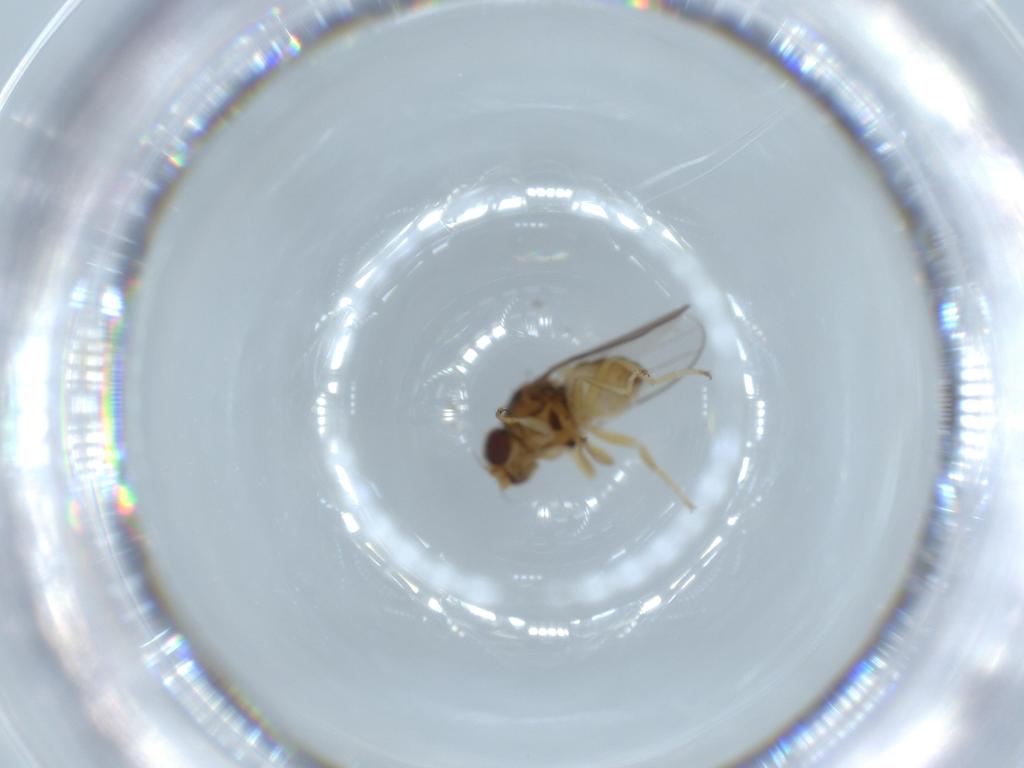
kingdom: Animalia
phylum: Arthropoda
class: Insecta
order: Diptera
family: Chloropidae
